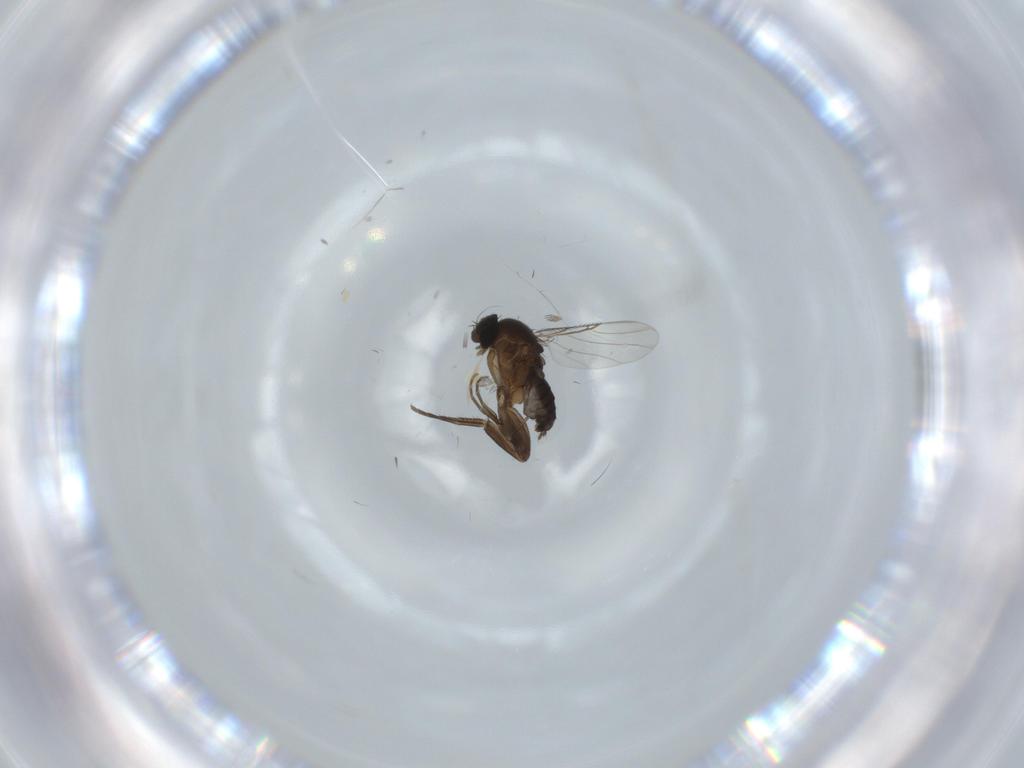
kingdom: Animalia
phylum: Arthropoda
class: Insecta
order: Diptera
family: Phoridae
